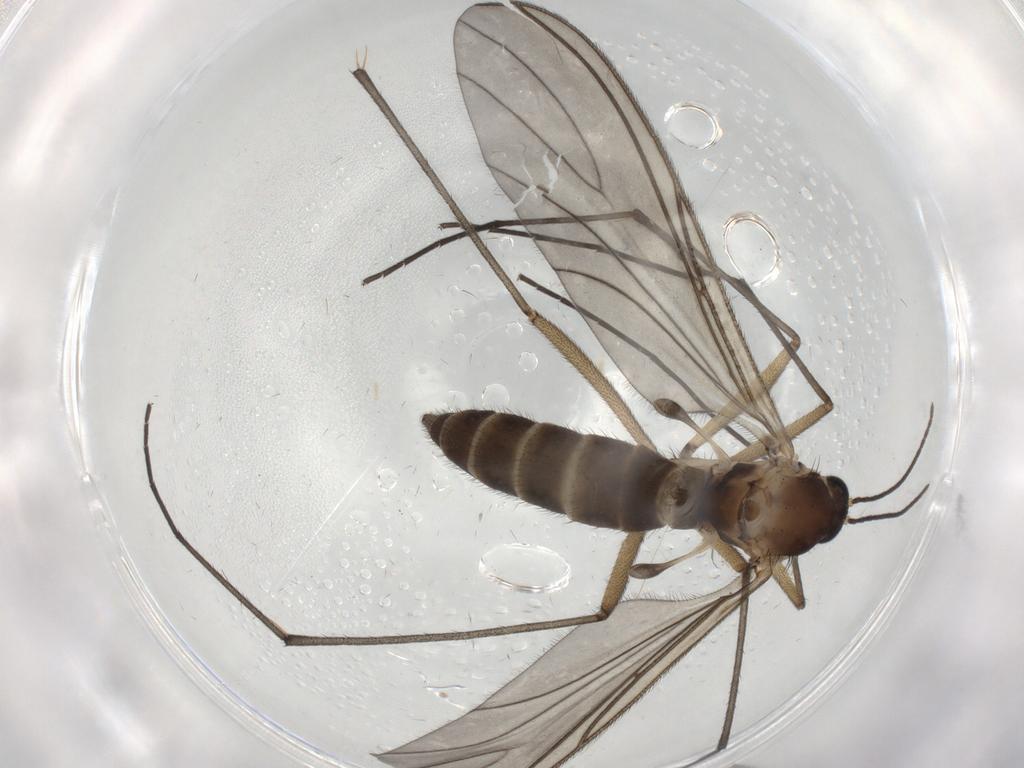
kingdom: Animalia
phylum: Arthropoda
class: Insecta
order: Diptera
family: Sciaridae
